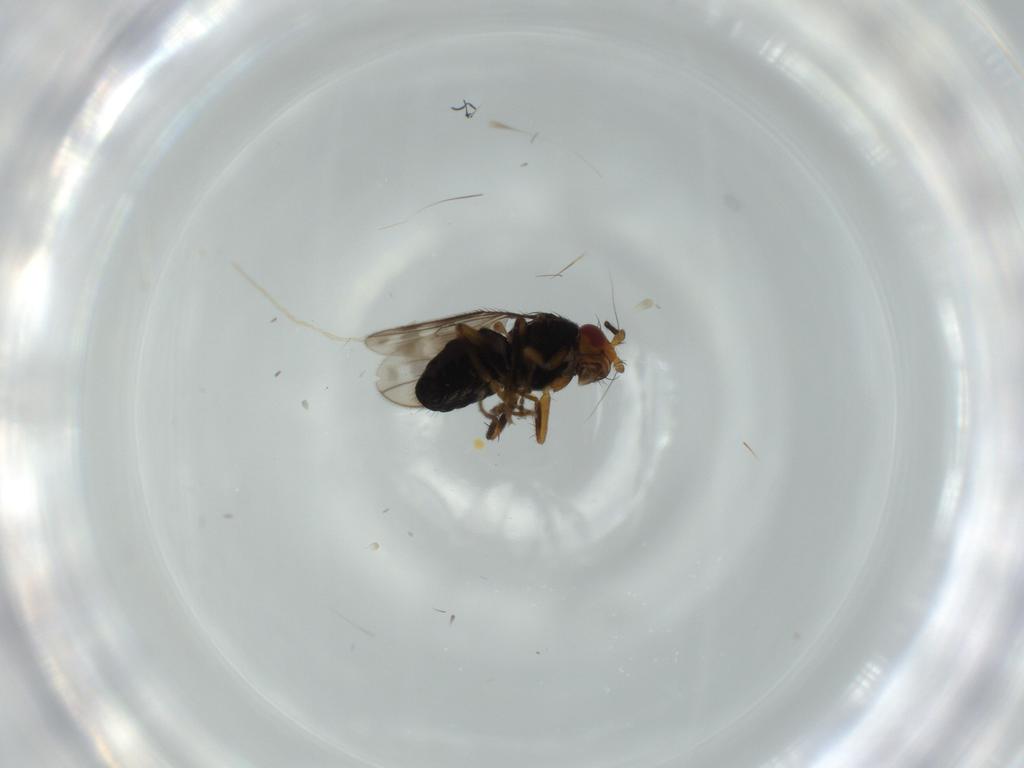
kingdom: Animalia
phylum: Arthropoda
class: Insecta
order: Diptera
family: Sphaeroceridae
